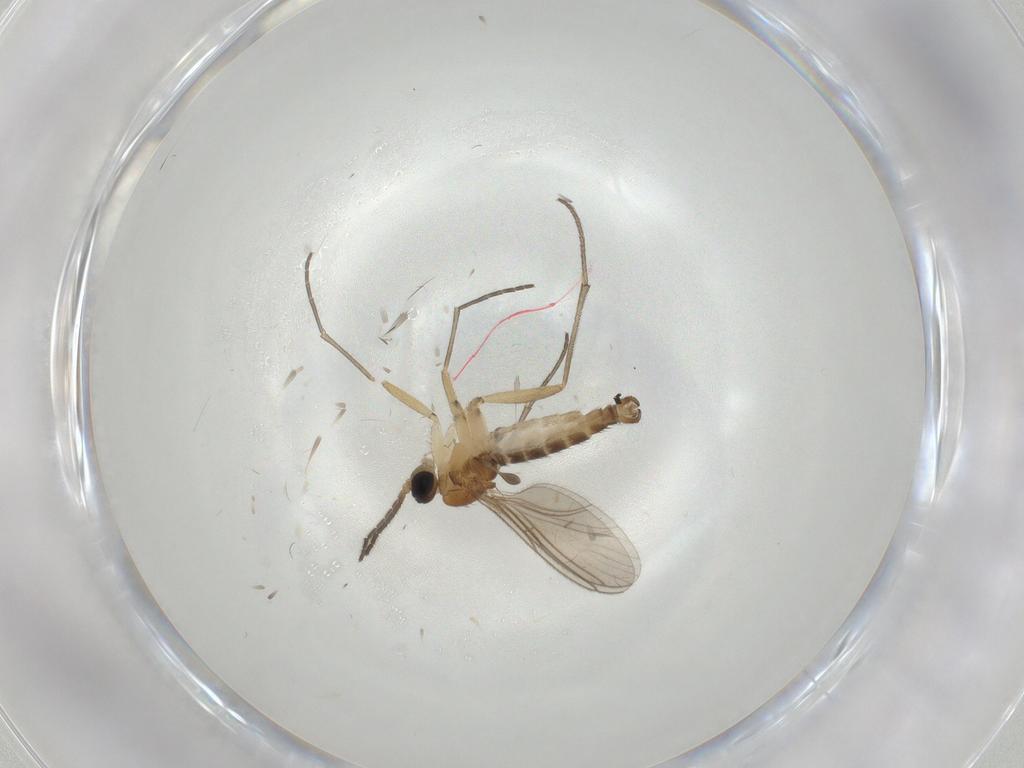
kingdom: Animalia
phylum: Arthropoda
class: Insecta
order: Diptera
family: Sciaridae
